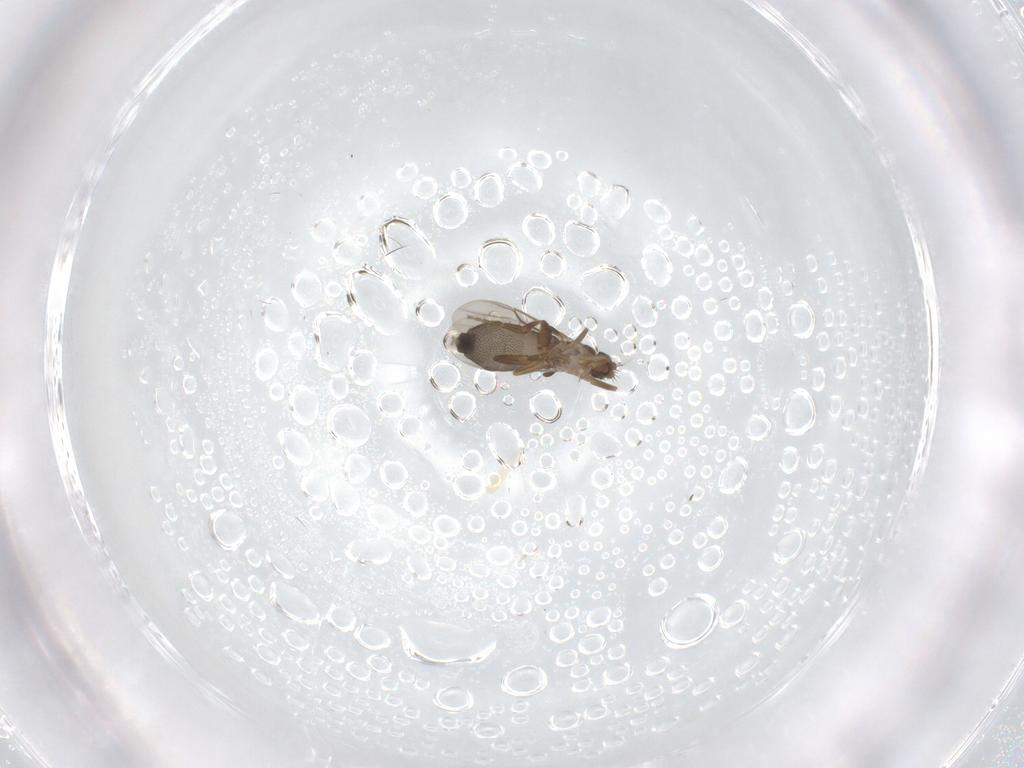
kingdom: Animalia
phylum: Arthropoda
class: Insecta
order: Diptera
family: Phoridae
